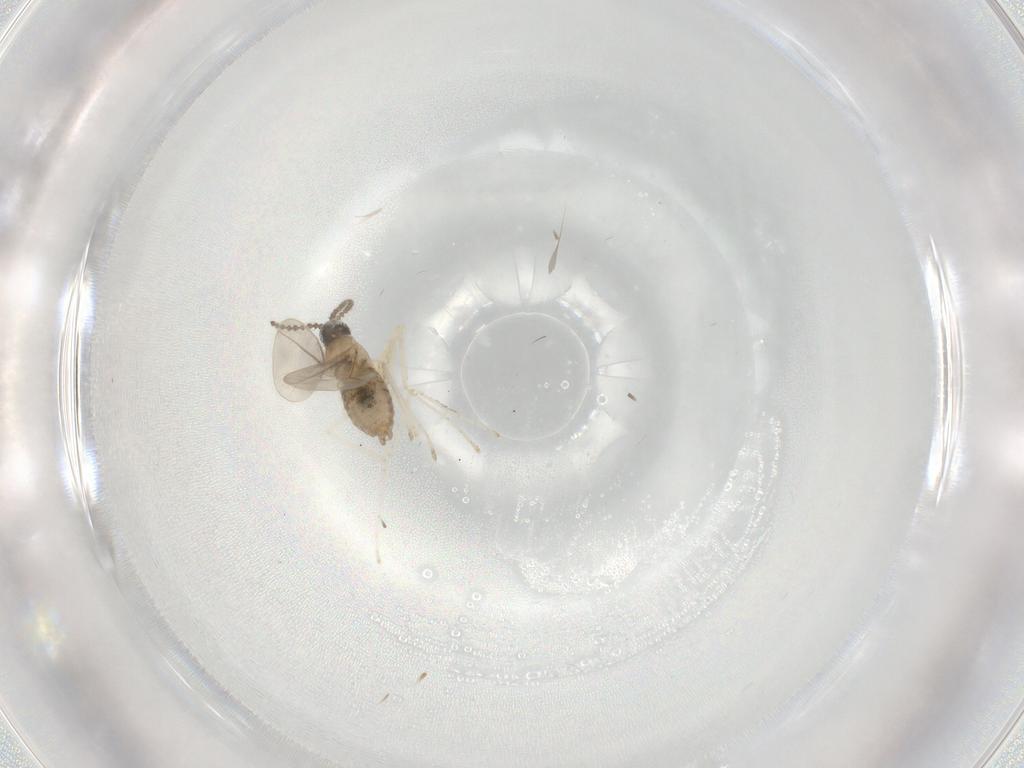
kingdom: Animalia
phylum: Arthropoda
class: Insecta
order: Diptera
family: Cecidomyiidae
